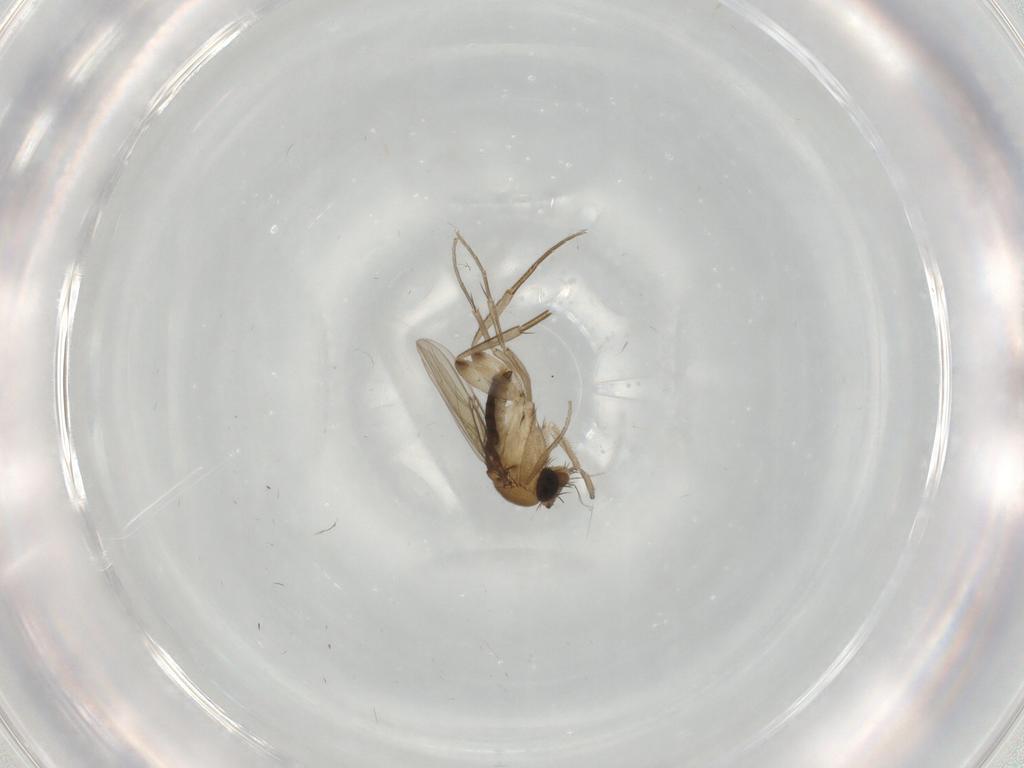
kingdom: Animalia
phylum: Arthropoda
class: Insecta
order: Diptera
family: Phoridae
